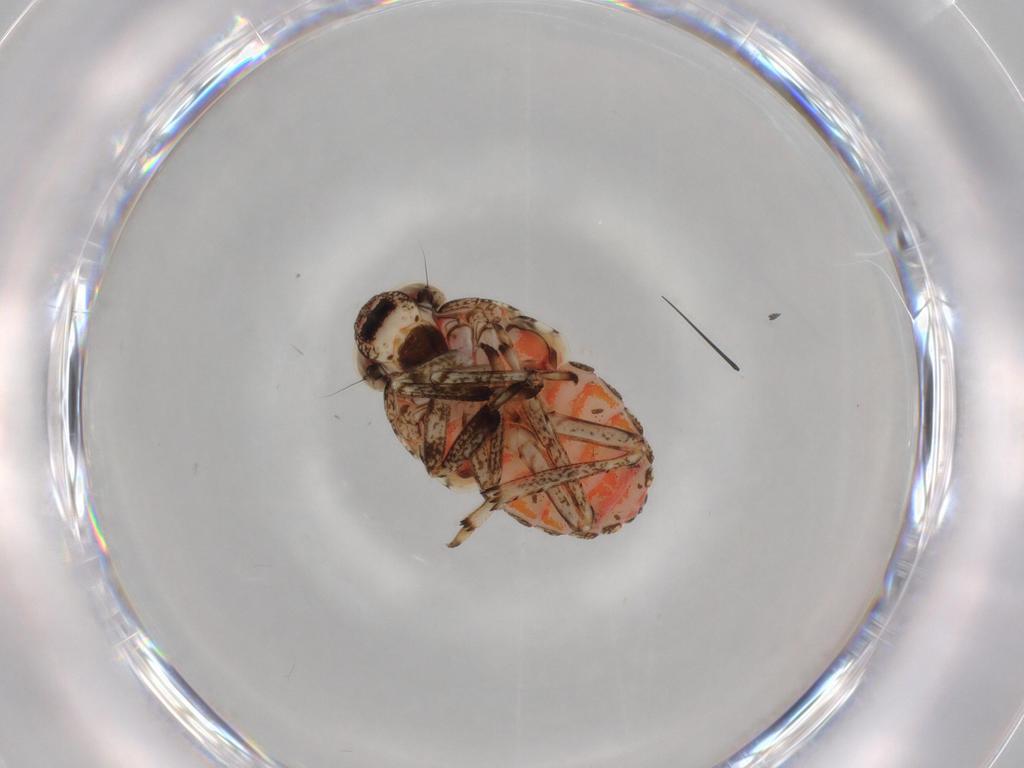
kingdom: Animalia
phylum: Arthropoda
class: Insecta
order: Hemiptera
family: Issidae
